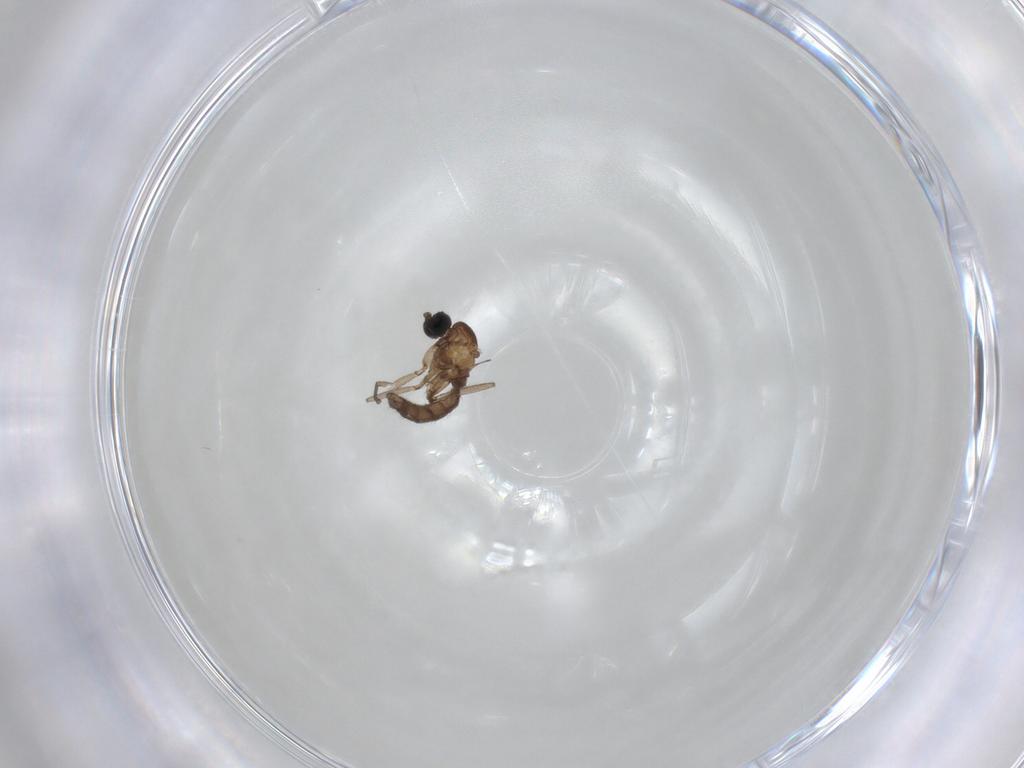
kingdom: Animalia
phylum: Arthropoda
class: Insecta
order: Diptera
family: Sciaridae
